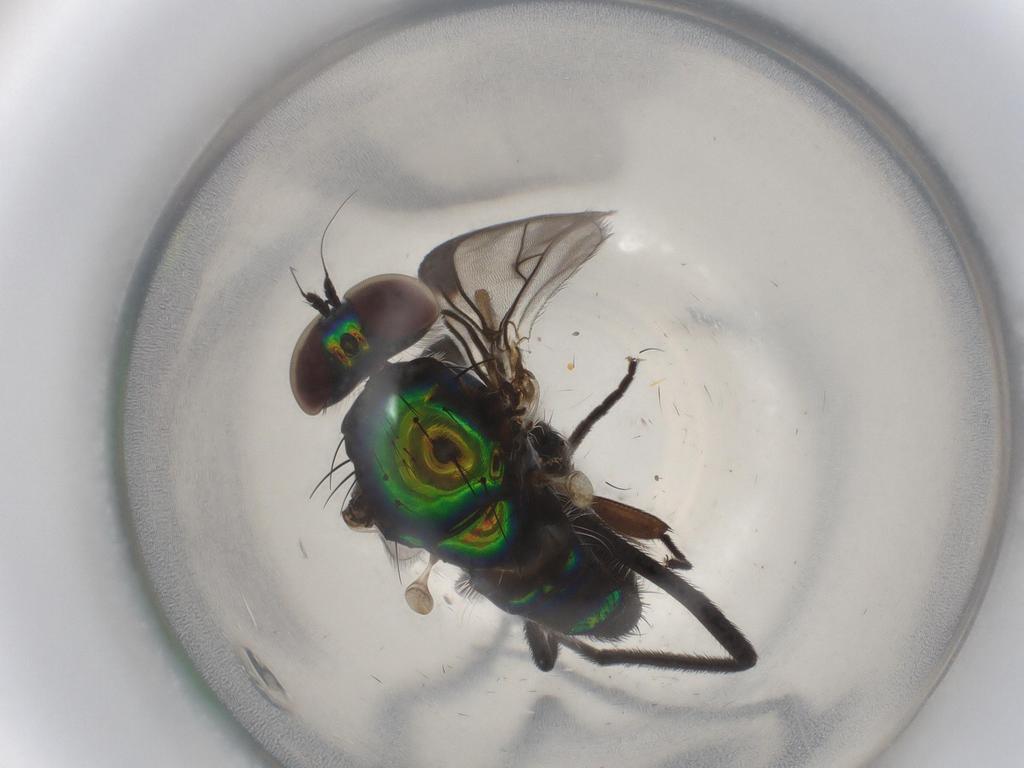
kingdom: Animalia
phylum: Arthropoda
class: Insecta
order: Diptera
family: Dolichopodidae
